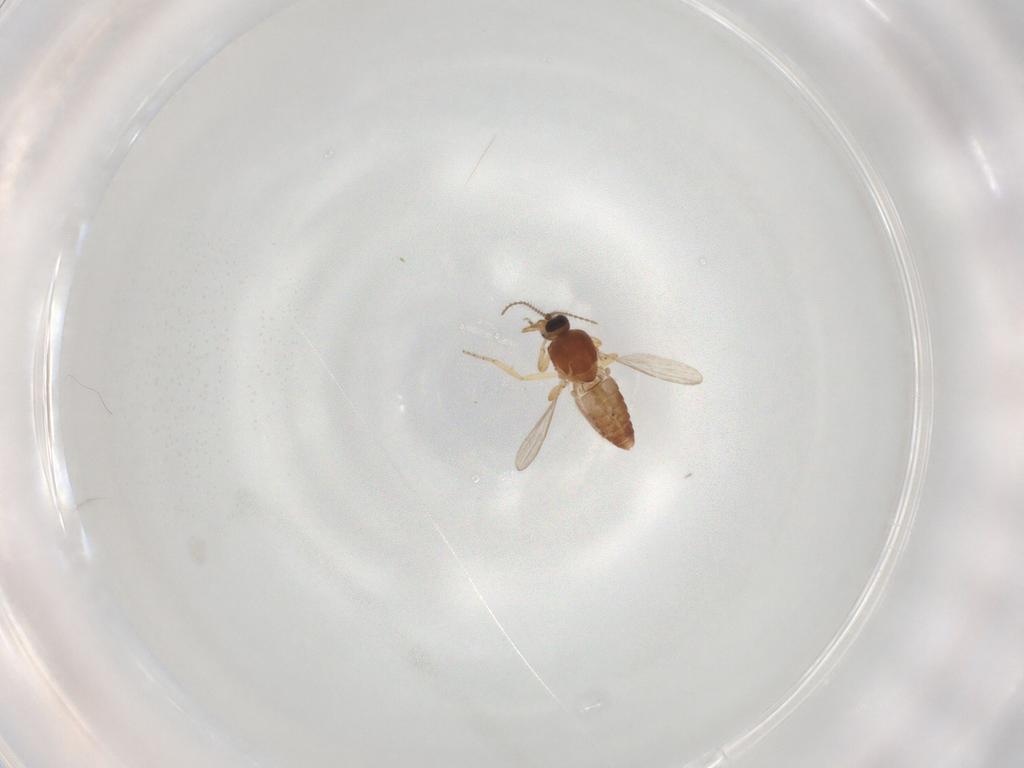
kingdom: Animalia
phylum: Arthropoda
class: Insecta
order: Diptera
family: Ceratopogonidae
